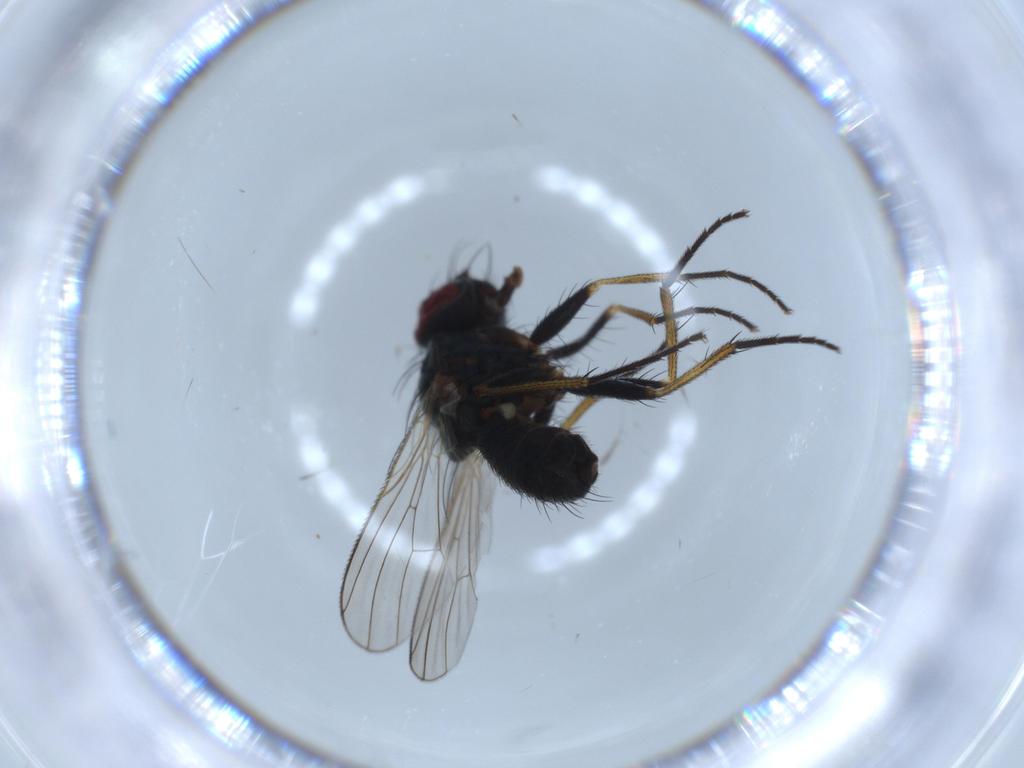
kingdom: Animalia
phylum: Arthropoda
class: Insecta
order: Diptera
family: Muscidae
